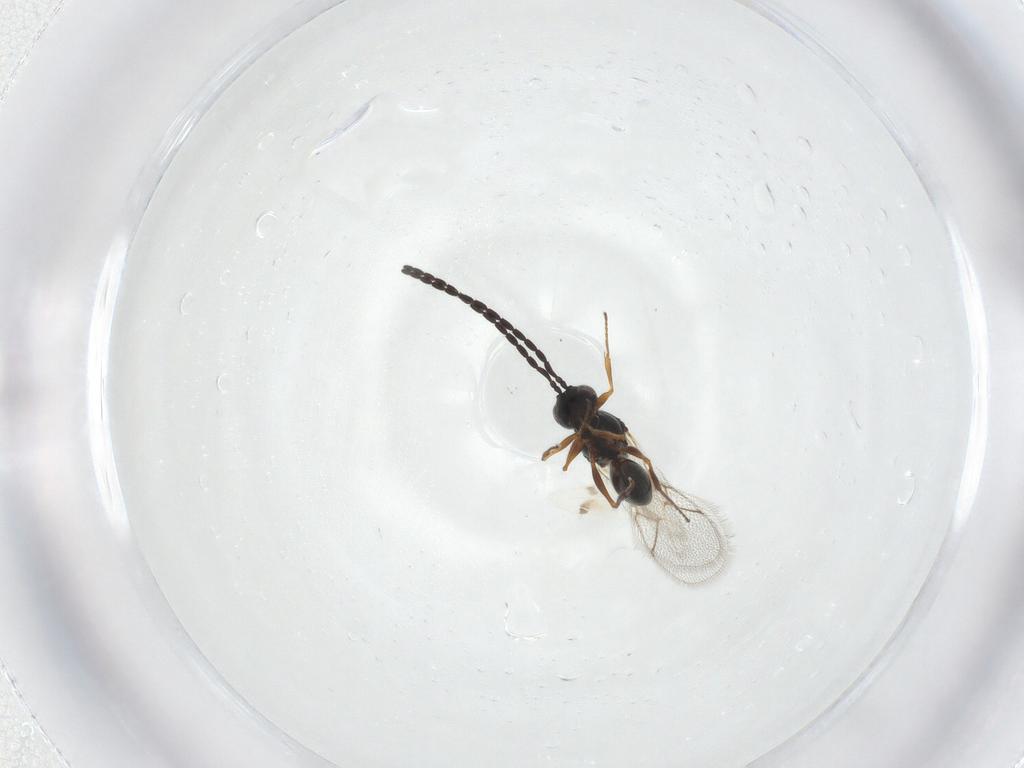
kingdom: Animalia
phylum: Arthropoda
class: Insecta
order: Hymenoptera
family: Figitidae
